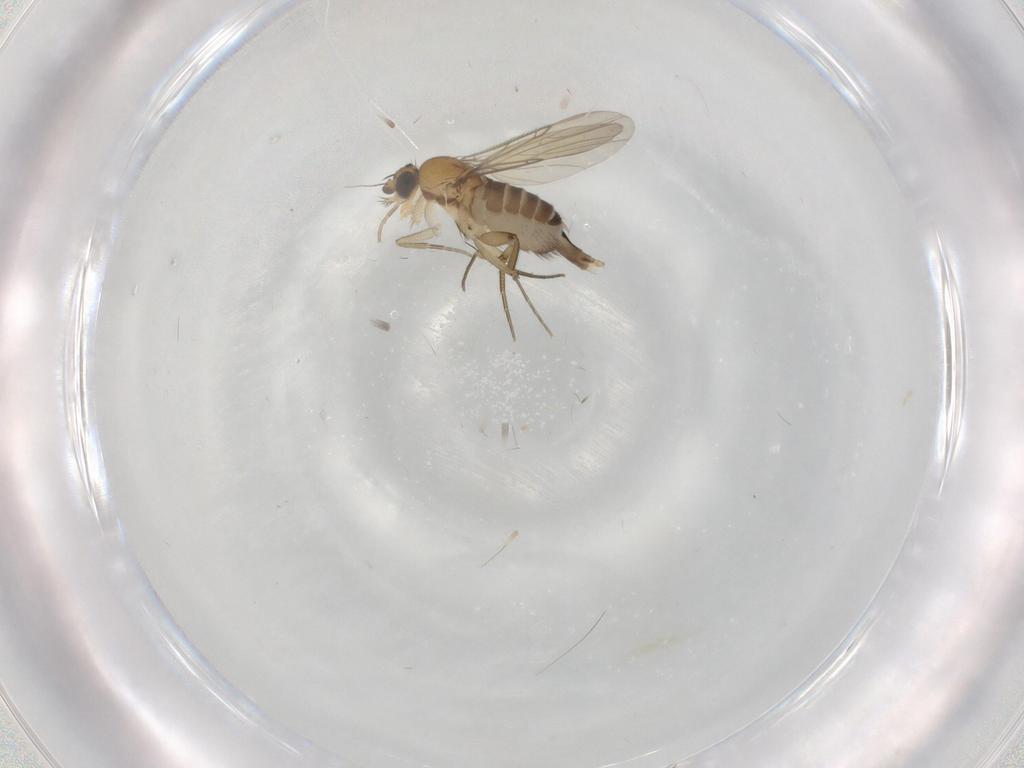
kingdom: Animalia
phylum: Arthropoda
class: Insecta
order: Diptera
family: Phoridae
